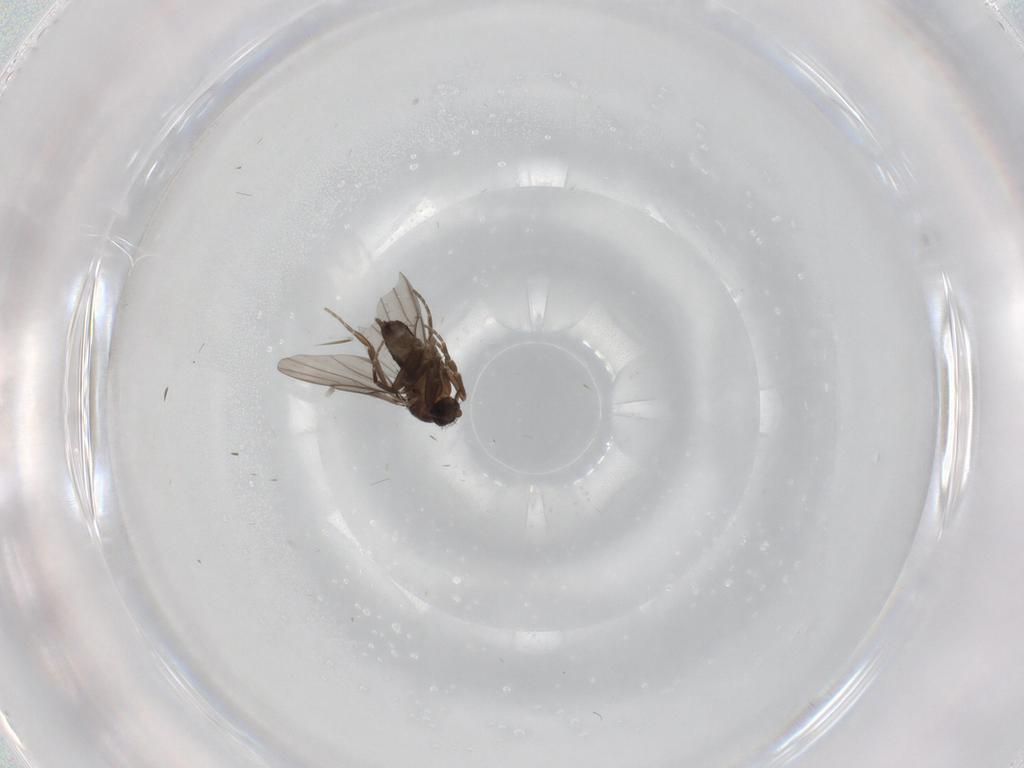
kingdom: Animalia
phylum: Arthropoda
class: Insecta
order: Diptera
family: Phoridae
